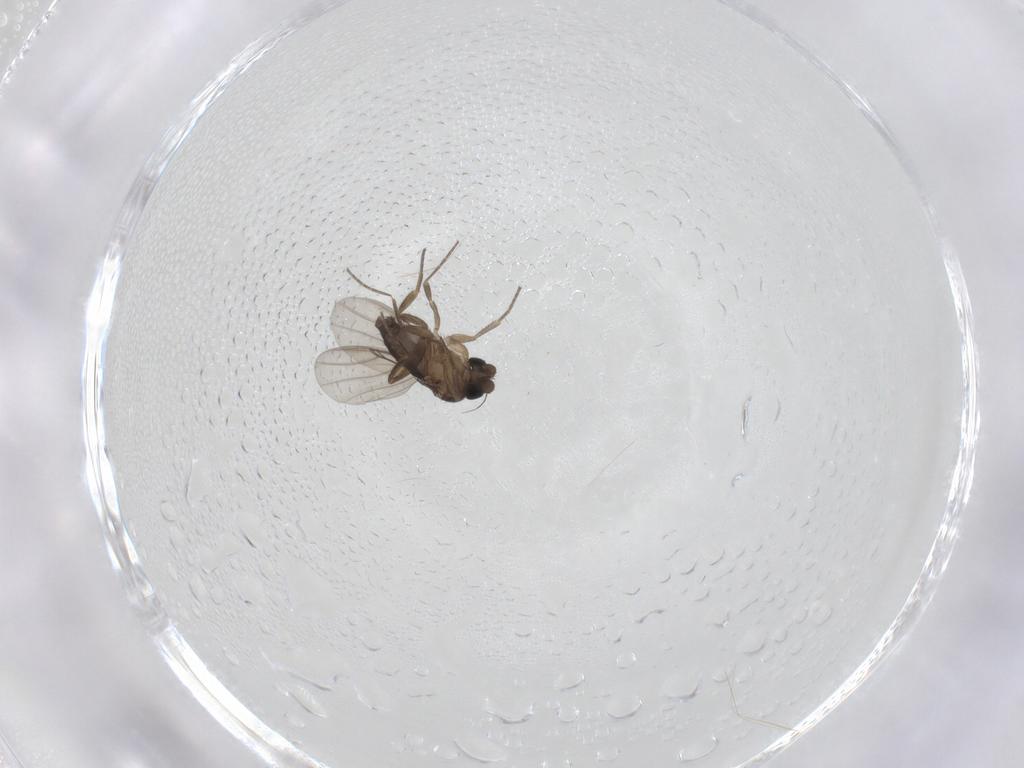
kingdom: Animalia
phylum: Arthropoda
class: Insecta
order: Diptera
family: Phoridae
